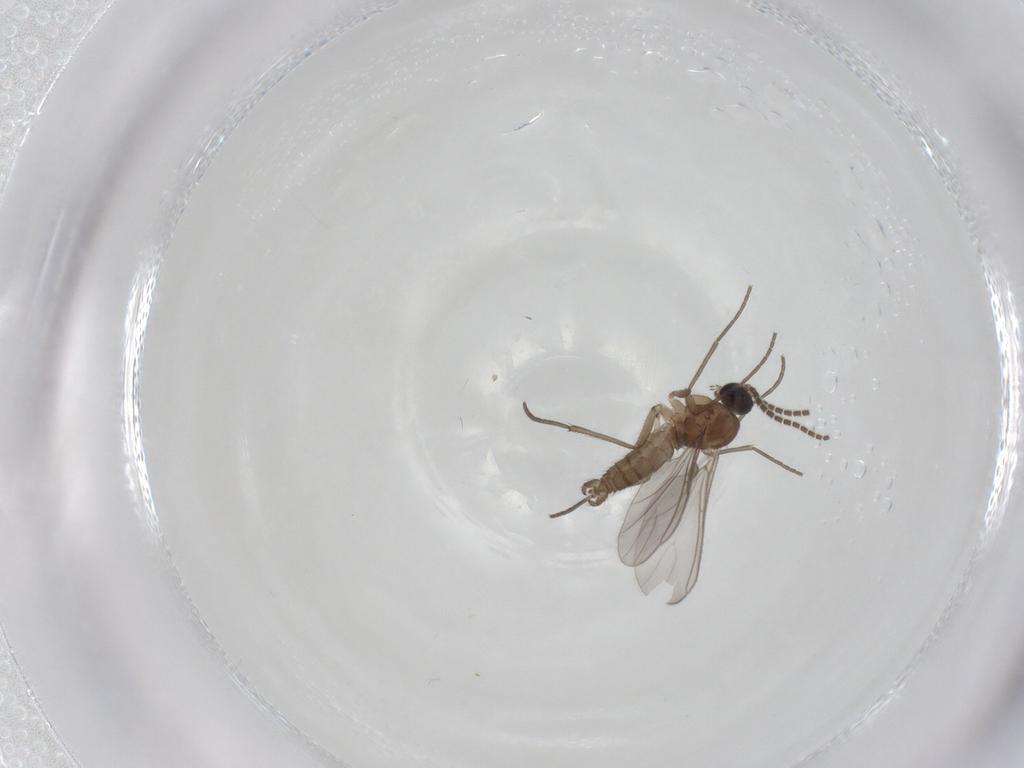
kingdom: Animalia
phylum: Arthropoda
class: Insecta
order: Diptera
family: Sciaridae
